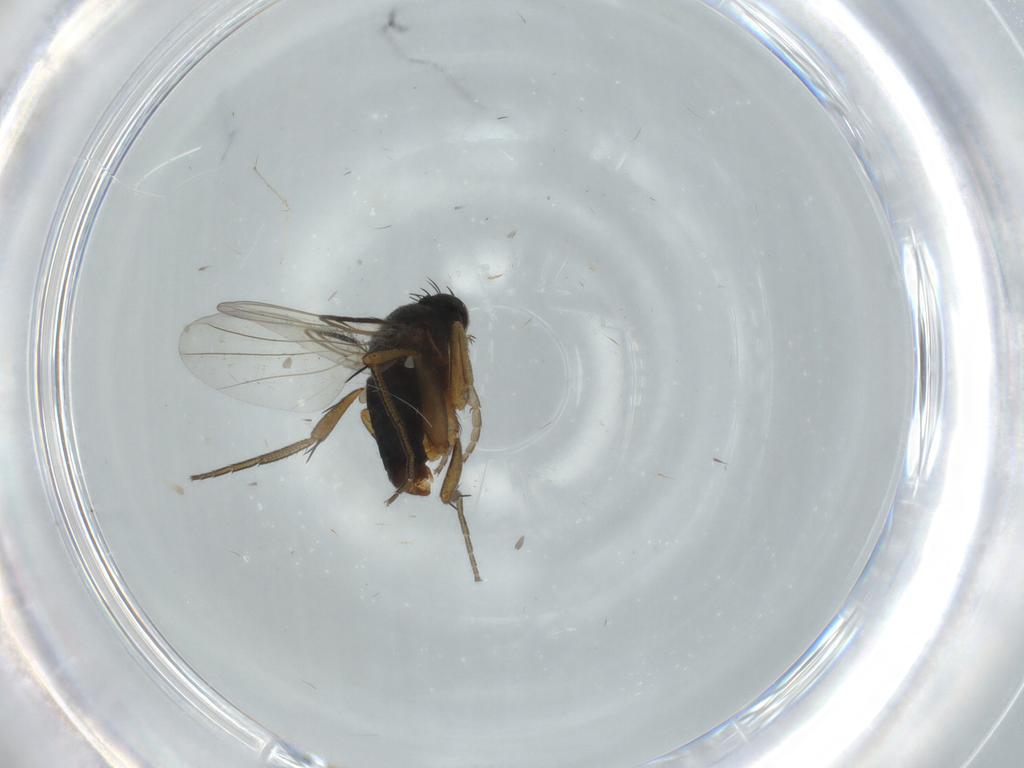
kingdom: Animalia
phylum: Arthropoda
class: Insecta
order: Diptera
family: Phoridae
